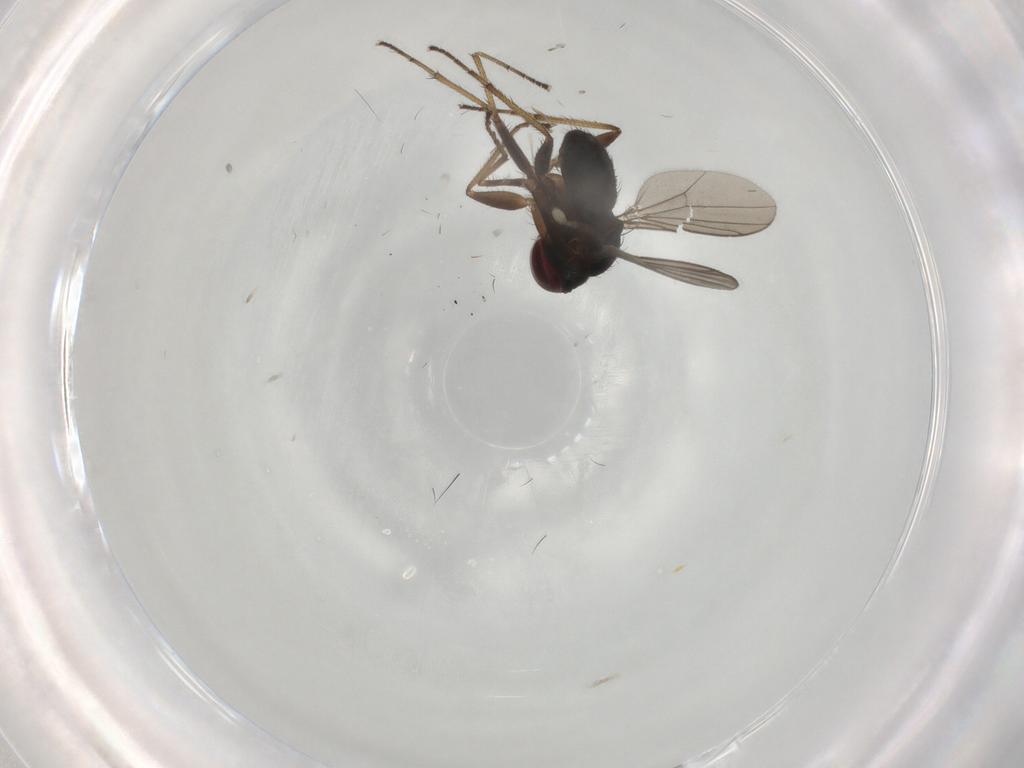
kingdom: Animalia
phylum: Arthropoda
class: Insecta
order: Diptera
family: Dolichopodidae
